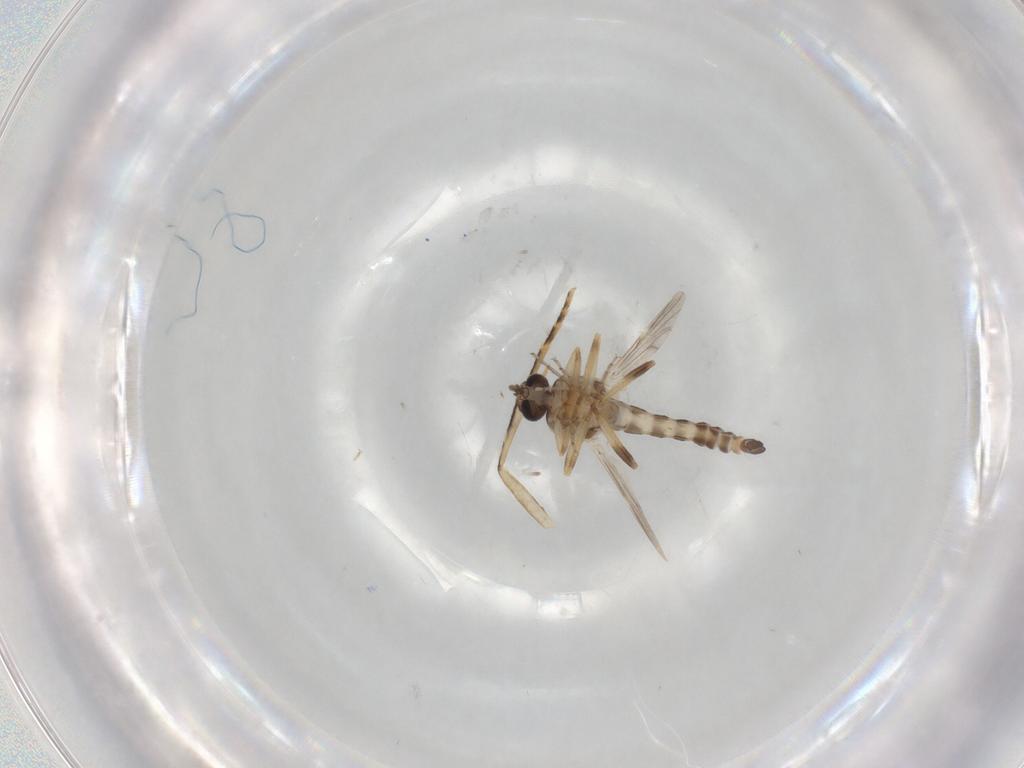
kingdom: Animalia
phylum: Arthropoda
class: Insecta
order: Diptera
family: Ceratopogonidae
